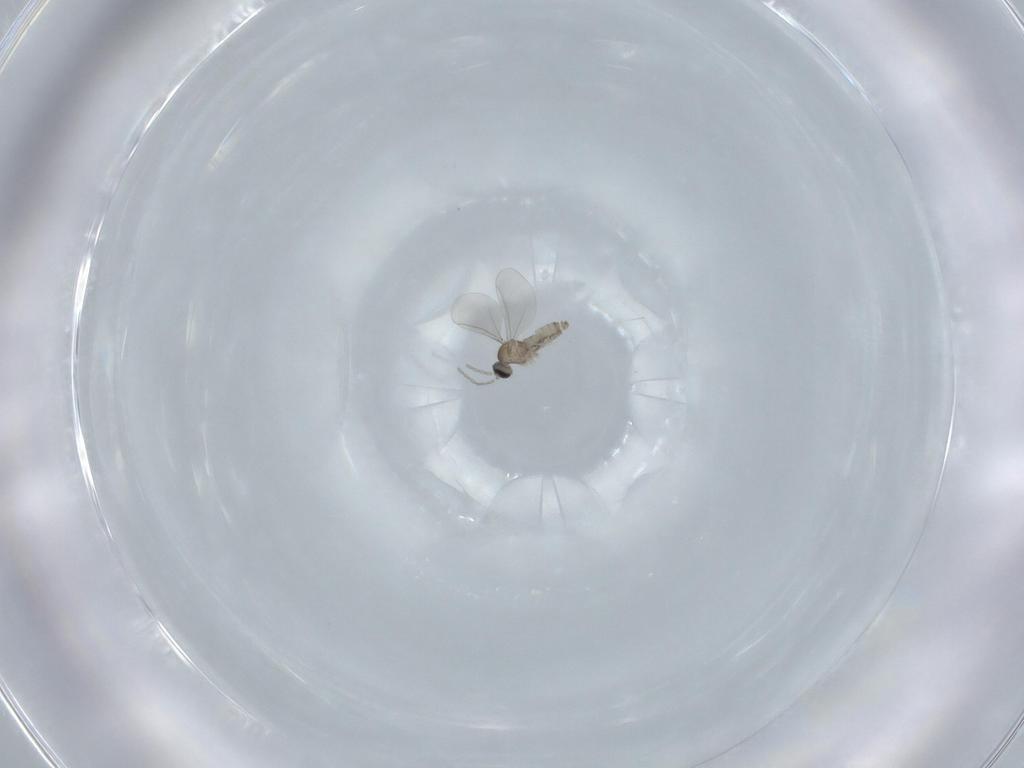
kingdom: Animalia
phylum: Arthropoda
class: Insecta
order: Diptera
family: Cecidomyiidae
